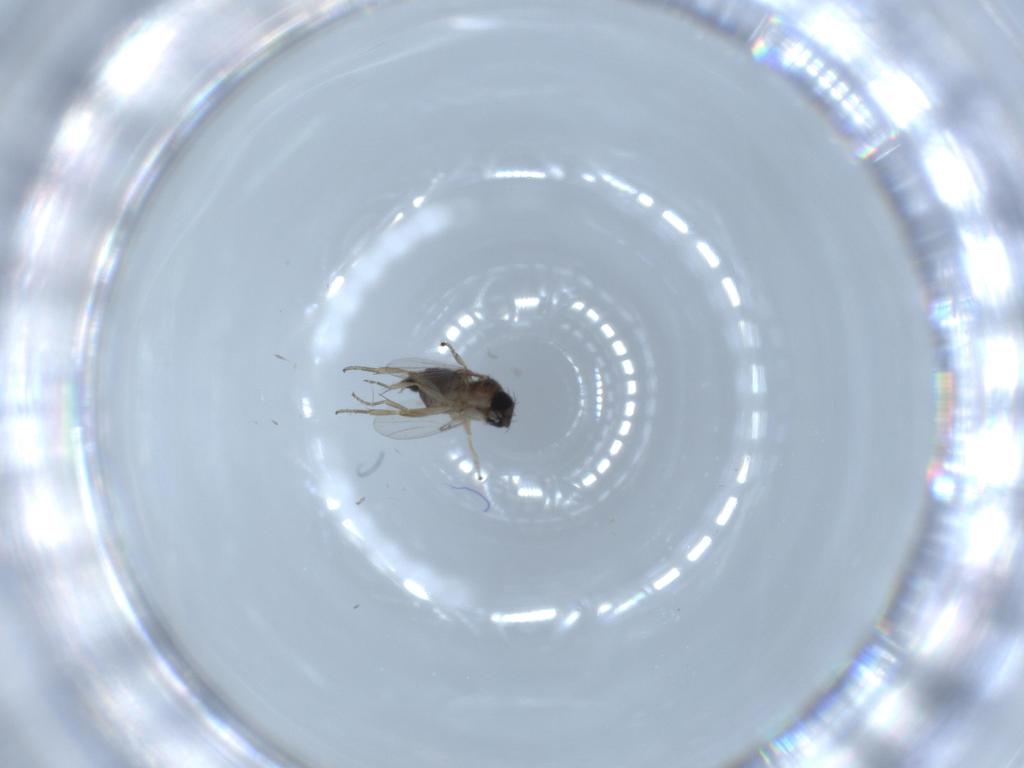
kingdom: Animalia
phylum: Arthropoda
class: Insecta
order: Diptera
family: Phoridae
